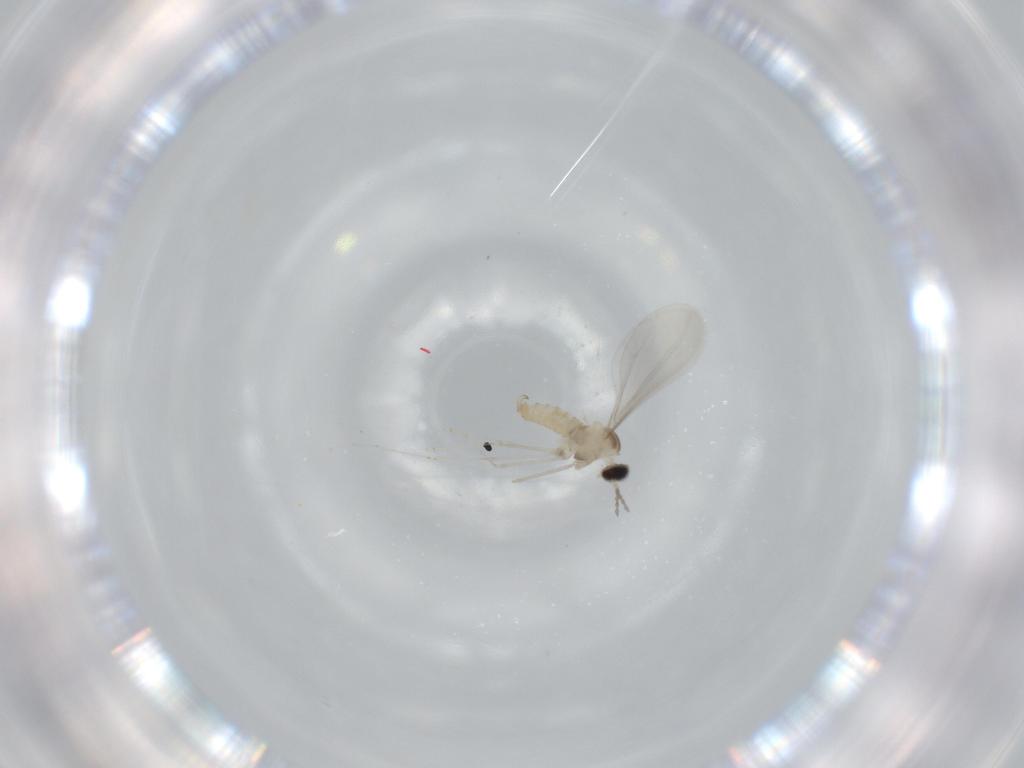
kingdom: Animalia
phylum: Arthropoda
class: Insecta
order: Diptera
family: Cecidomyiidae
